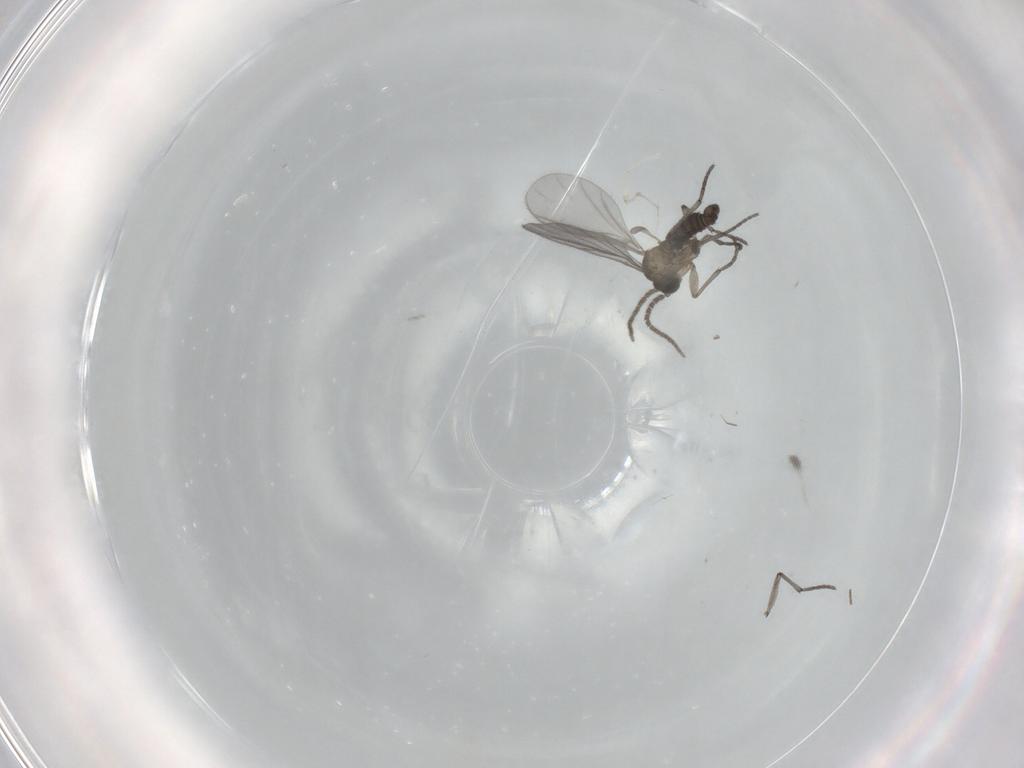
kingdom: Animalia
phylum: Arthropoda
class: Insecta
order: Diptera
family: Sciaridae
